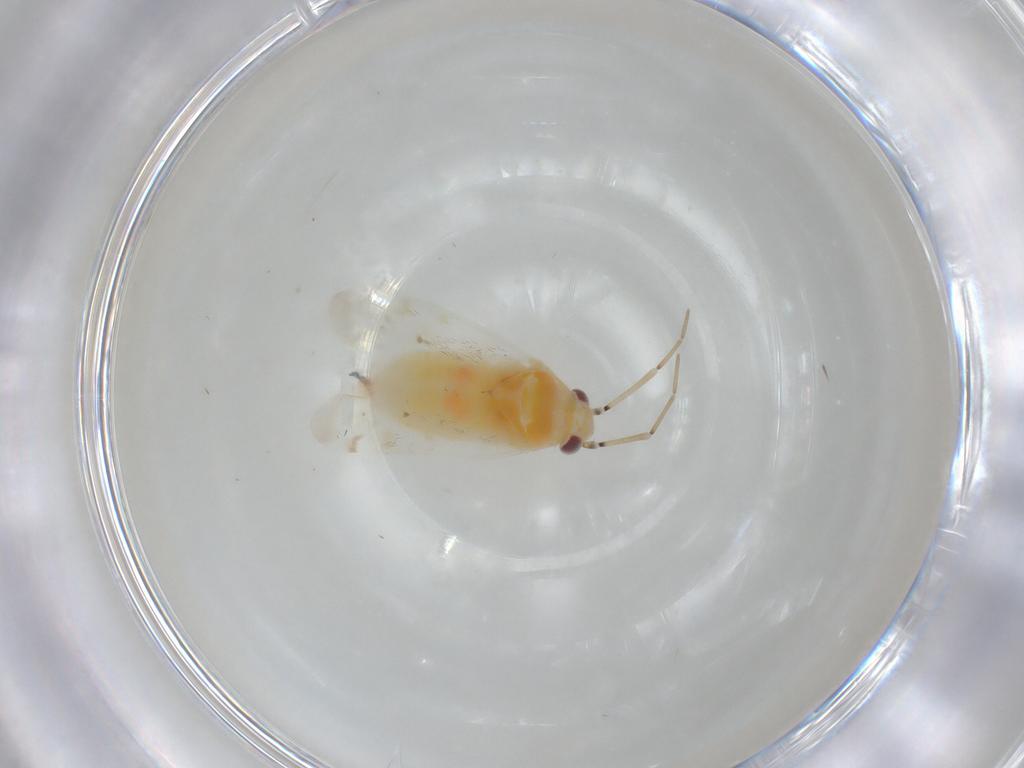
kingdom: Animalia
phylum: Arthropoda
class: Insecta
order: Hemiptera
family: Miridae
